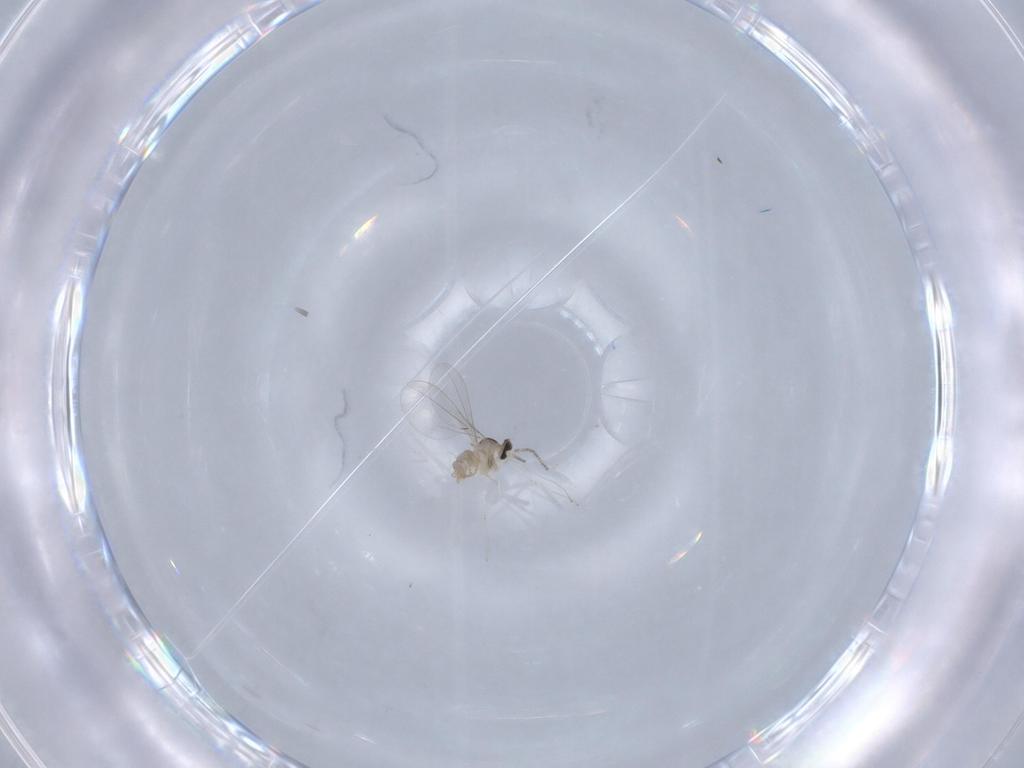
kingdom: Animalia
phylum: Arthropoda
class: Insecta
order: Diptera
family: Cecidomyiidae
